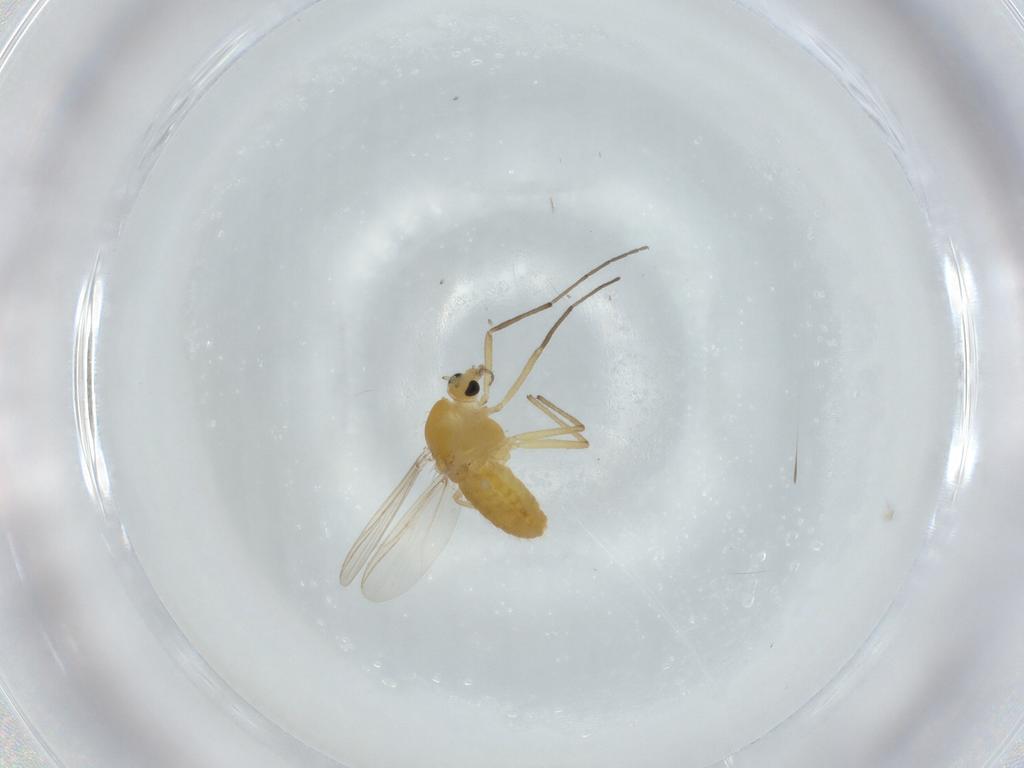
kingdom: Animalia
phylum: Arthropoda
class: Insecta
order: Diptera
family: Chironomidae
